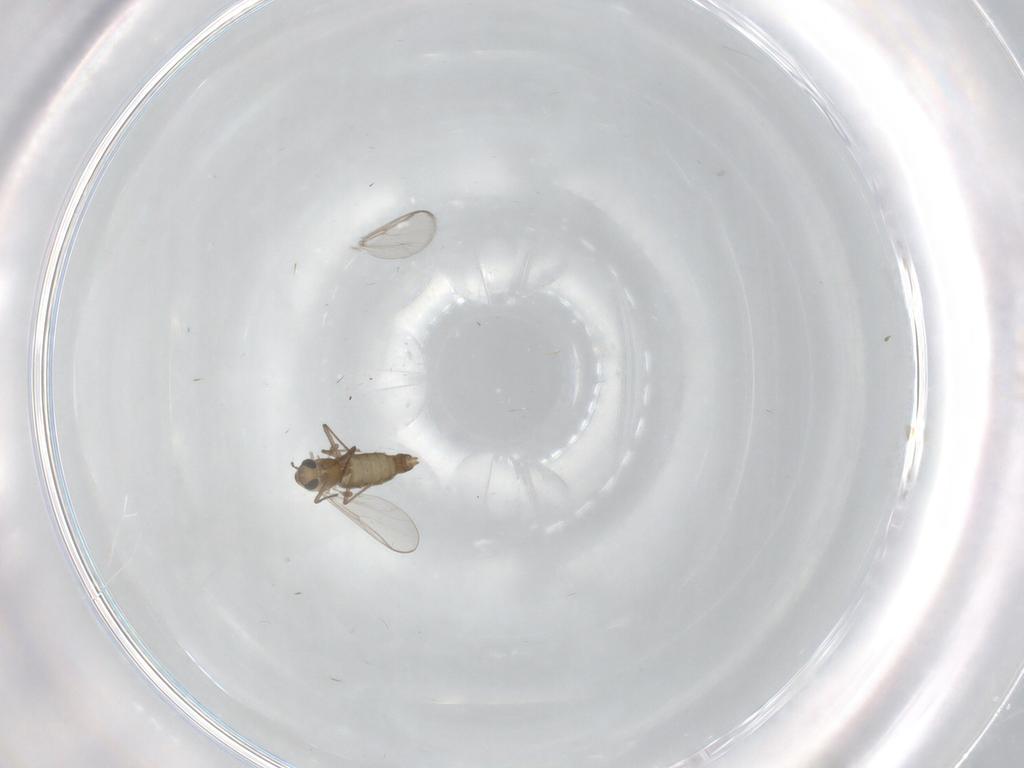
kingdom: Animalia
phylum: Arthropoda
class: Insecta
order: Diptera
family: Chironomidae
